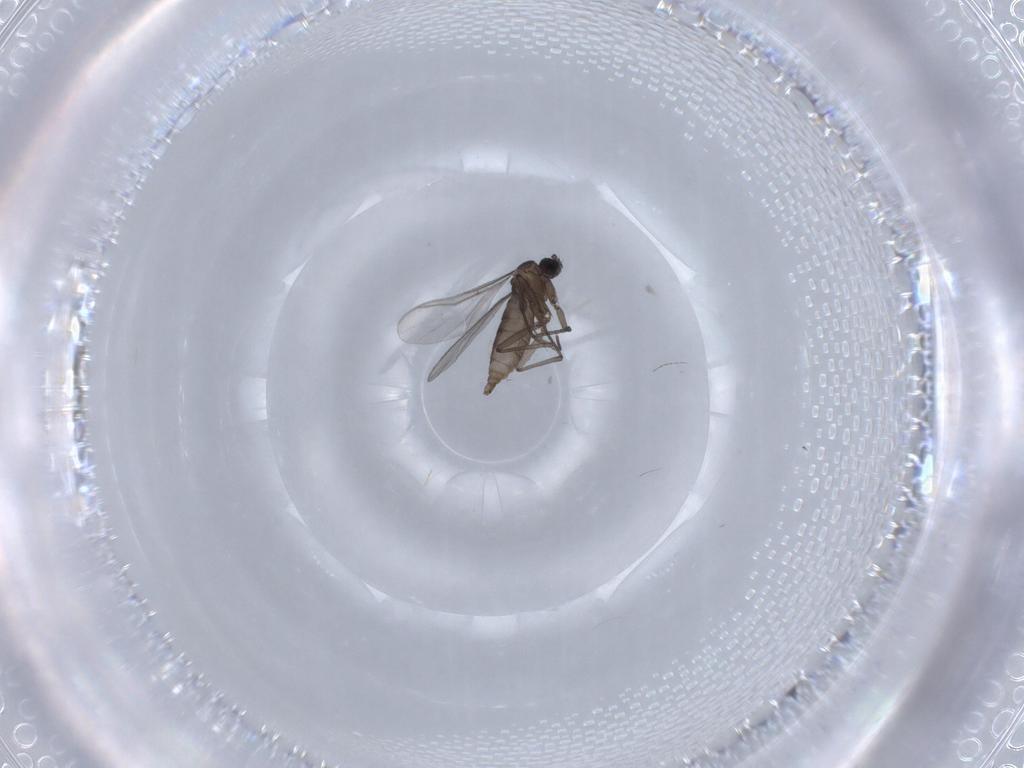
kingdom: Animalia
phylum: Arthropoda
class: Insecta
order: Diptera
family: Sciaridae
